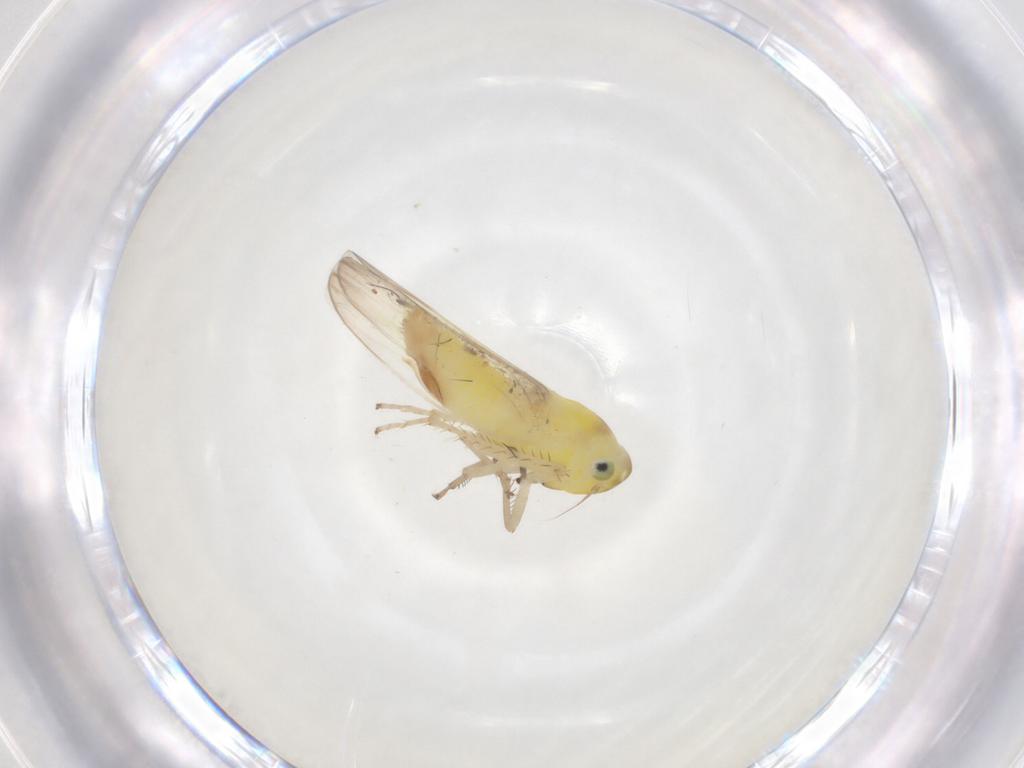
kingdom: Animalia
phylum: Arthropoda
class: Insecta
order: Hemiptera
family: Cicadellidae
